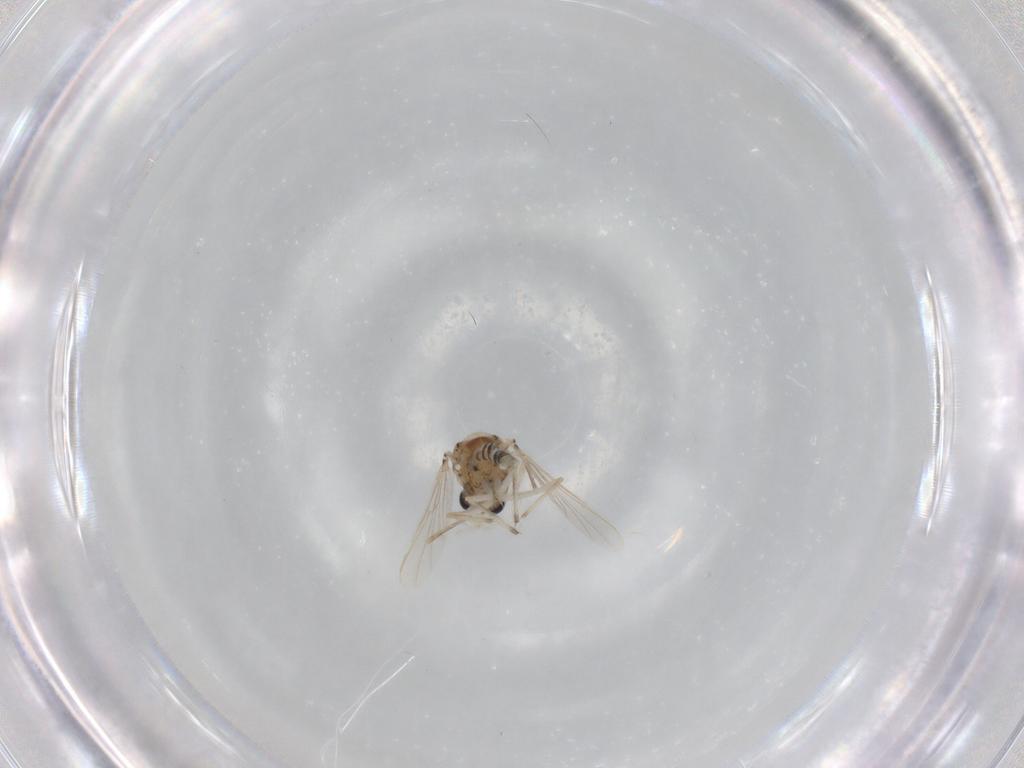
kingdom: Animalia
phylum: Arthropoda
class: Insecta
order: Diptera
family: Chironomidae
